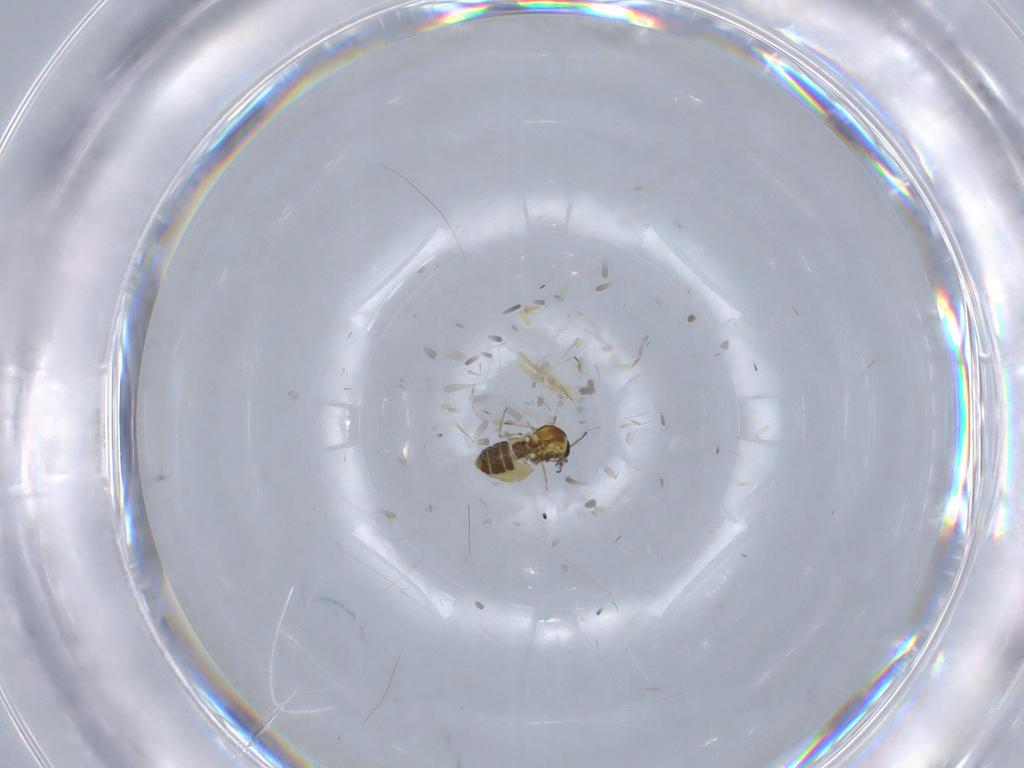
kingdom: Animalia
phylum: Arthropoda
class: Insecta
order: Diptera
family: Ceratopogonidae
